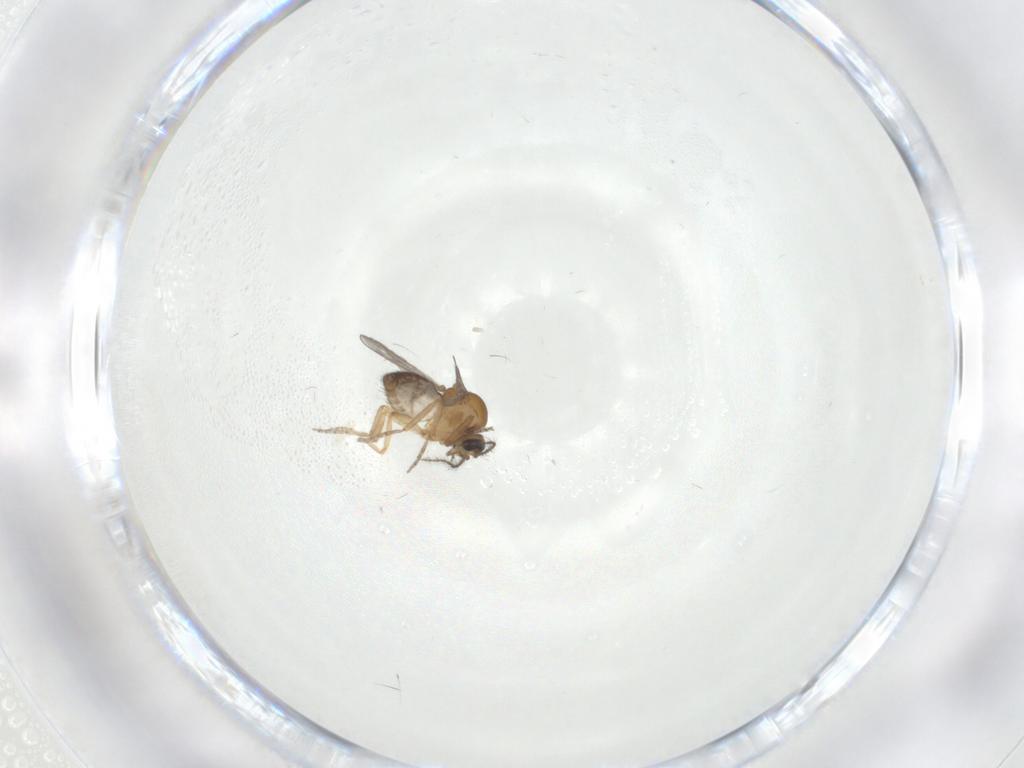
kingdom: Animalia
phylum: Arthropoda
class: Insecta
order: Diptera
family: Ceratopogonidae
